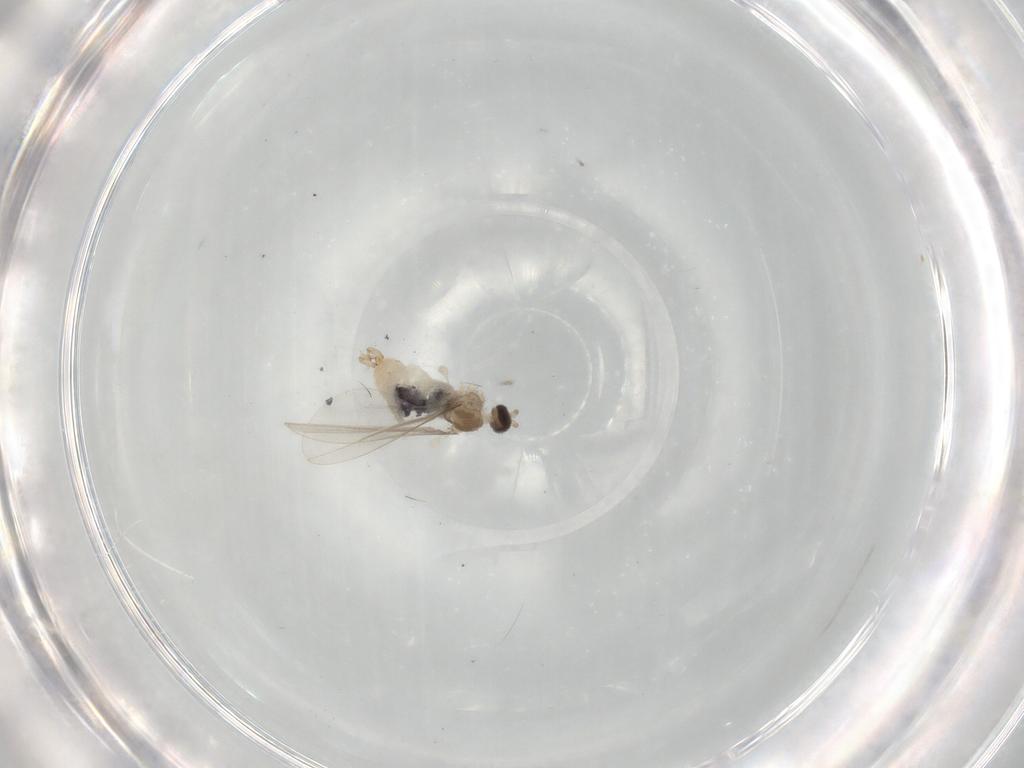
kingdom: Animalia
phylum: Arthropoda
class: Insecta
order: Diptera
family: Cecidomyiidae
